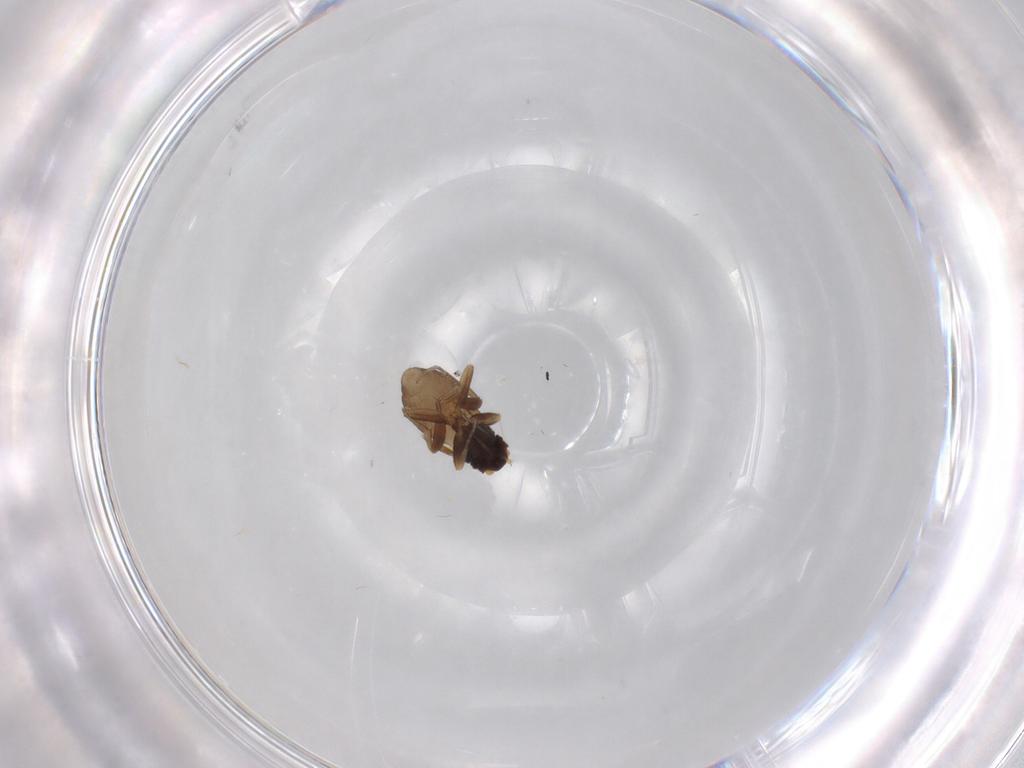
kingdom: Animalia
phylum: Arthropoda
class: Insecta
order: Diptera
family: Phoridae
